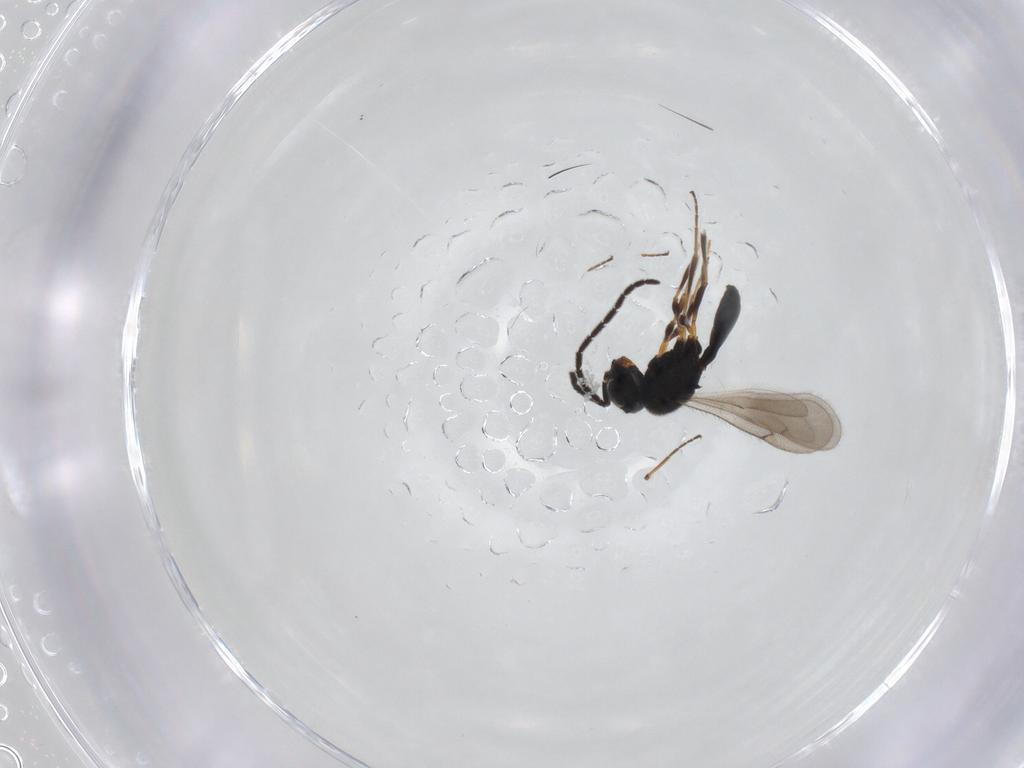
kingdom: Animalia
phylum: Arthropoda
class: Insecta
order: Hymenoptera
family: Scelionidae
